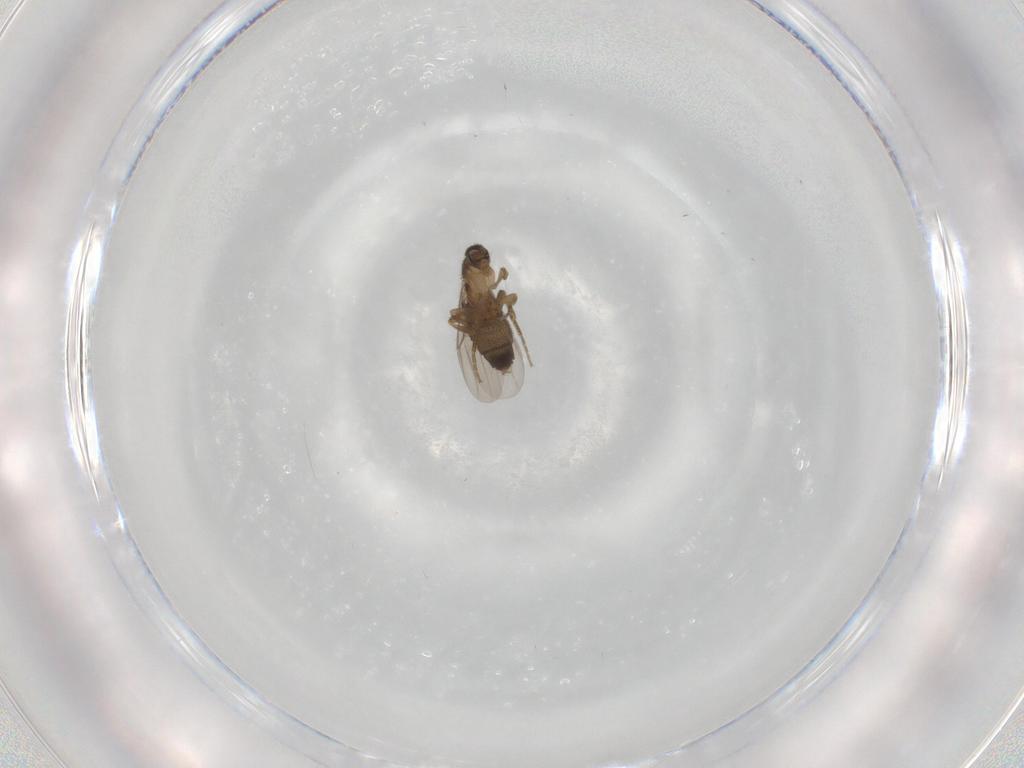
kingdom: Animalia
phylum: Arthropoda
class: Insecta
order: Diptera
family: Phoridae
